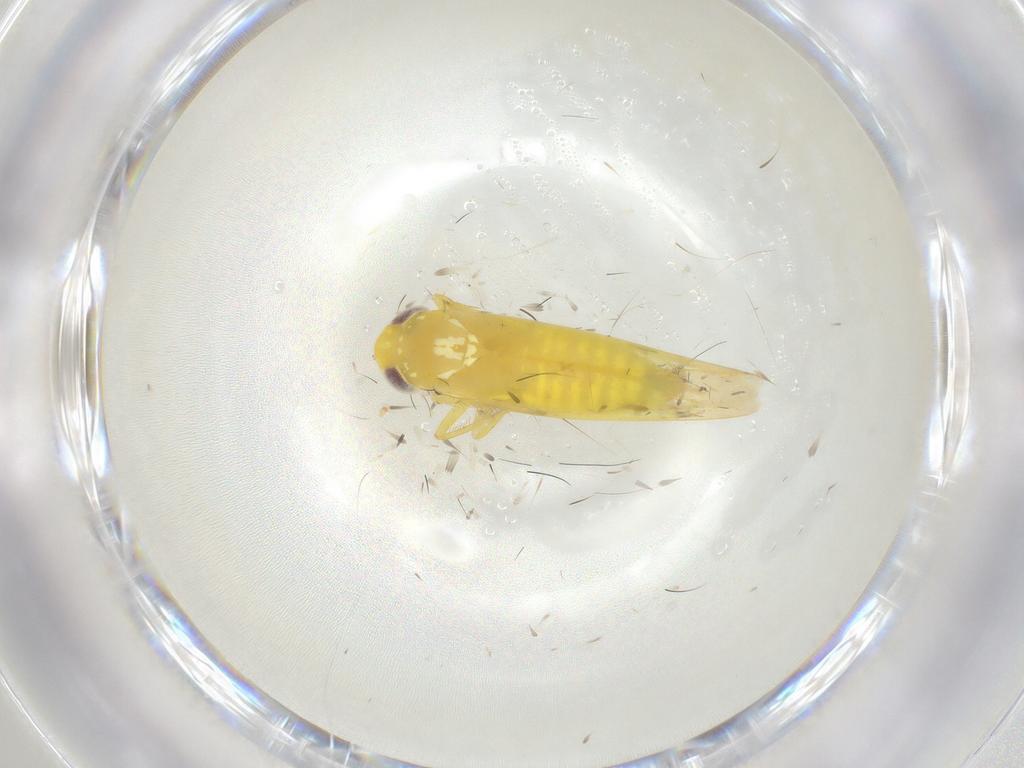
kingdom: Animalia
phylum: Arthropoda
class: Insecta
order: Hemiptera
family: Cicadellidae
